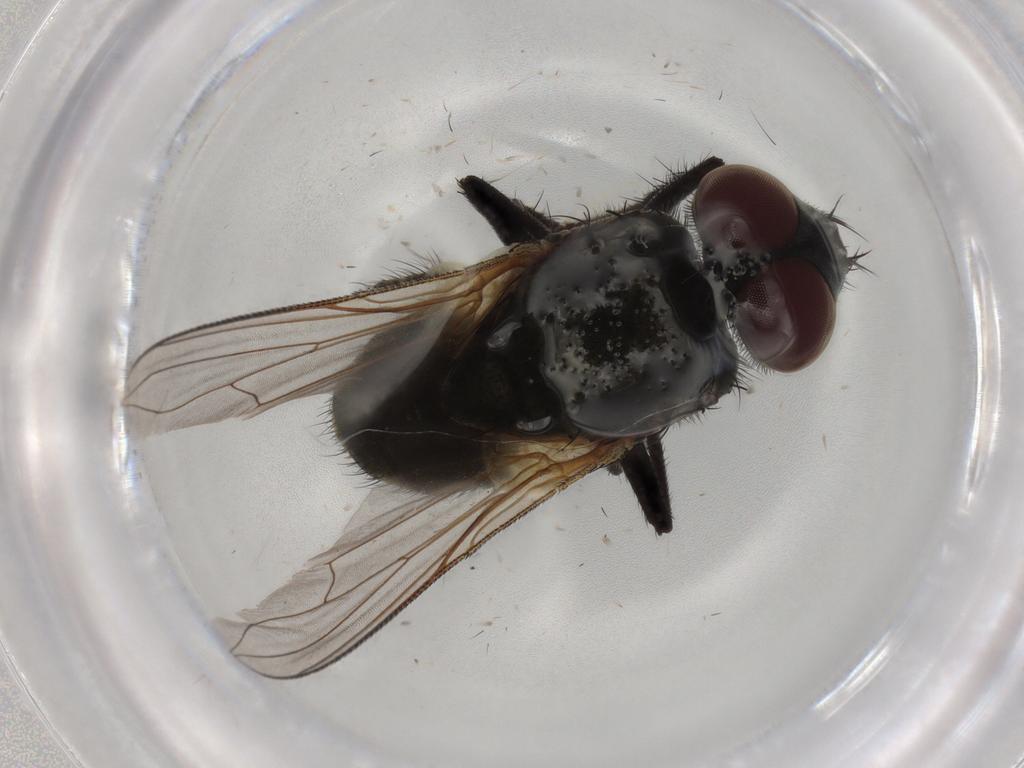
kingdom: Animalia
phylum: Arthropoda
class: Insecta
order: Diptera
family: Muscidae
